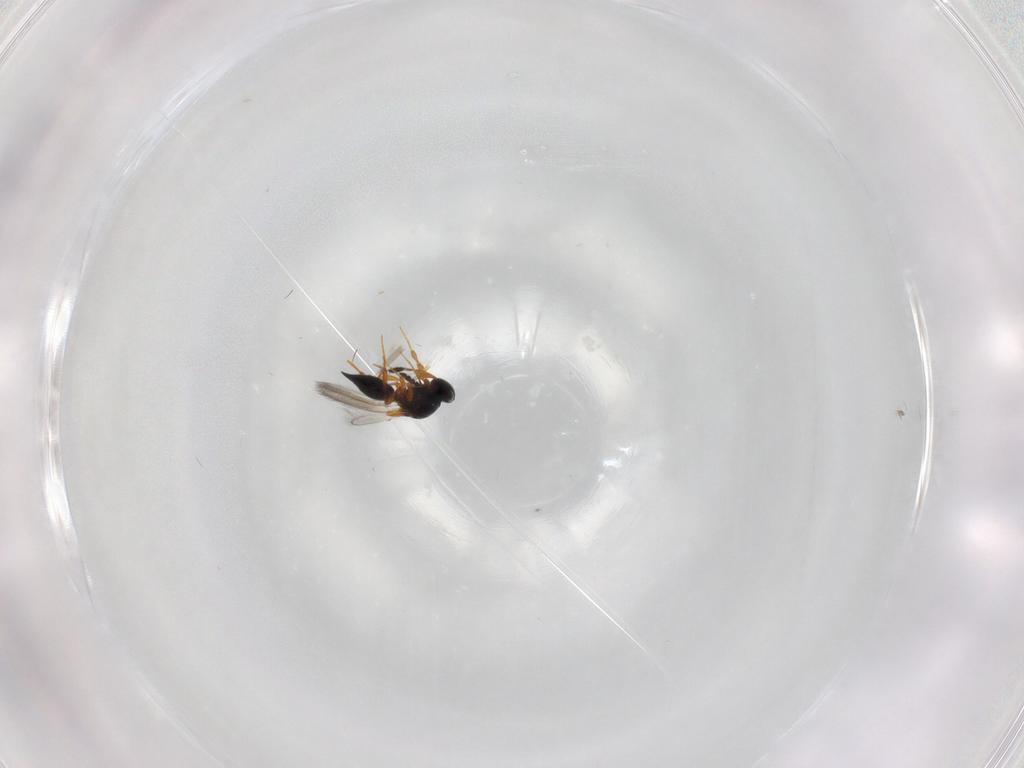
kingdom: Animalia
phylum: Arthropoda
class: Insecta
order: Hymenoptera
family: Platygastridae
